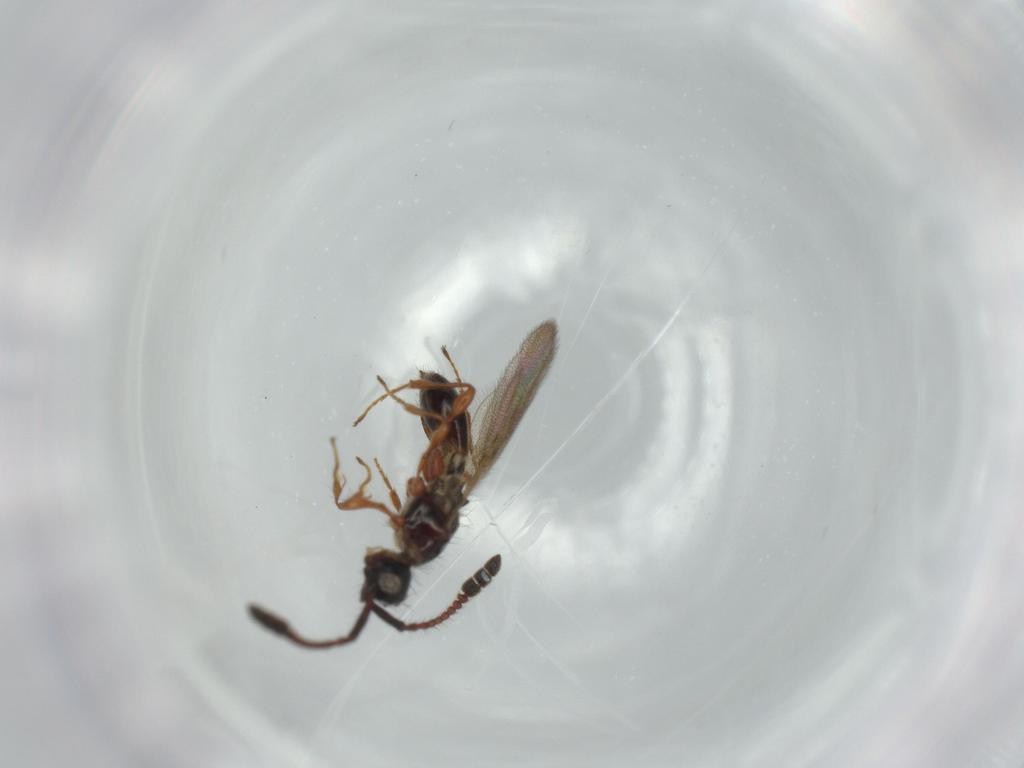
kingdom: Animalia
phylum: Arthropoda
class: Insecta
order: Hymenoptera
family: Diapriidae
